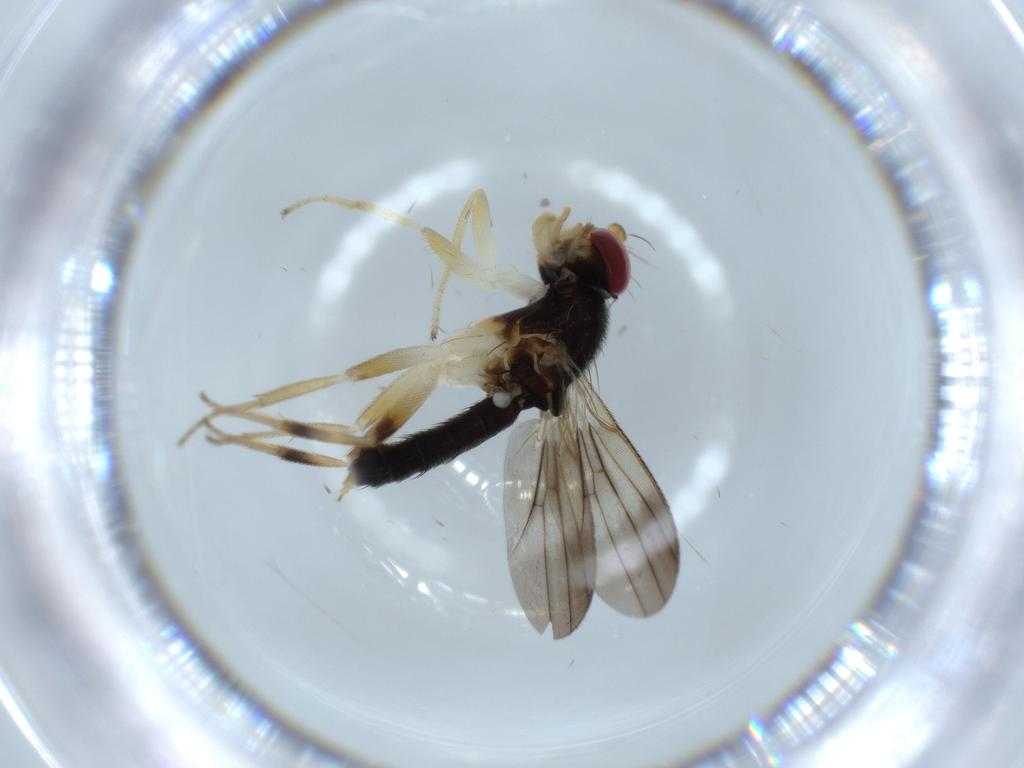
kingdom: Animalia
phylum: Arthropoda
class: Insecta
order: Diptera
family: Clusiidae
